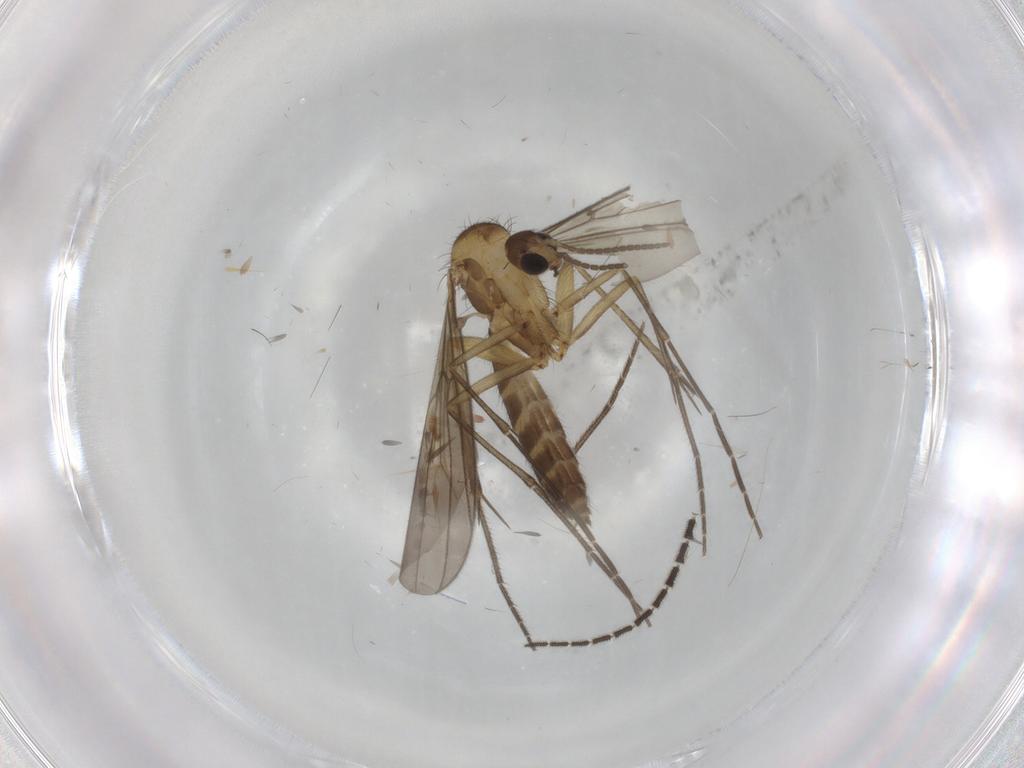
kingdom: Animalia
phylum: Arthropoda
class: Insecta
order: Diptera
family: Mycetophilidae
